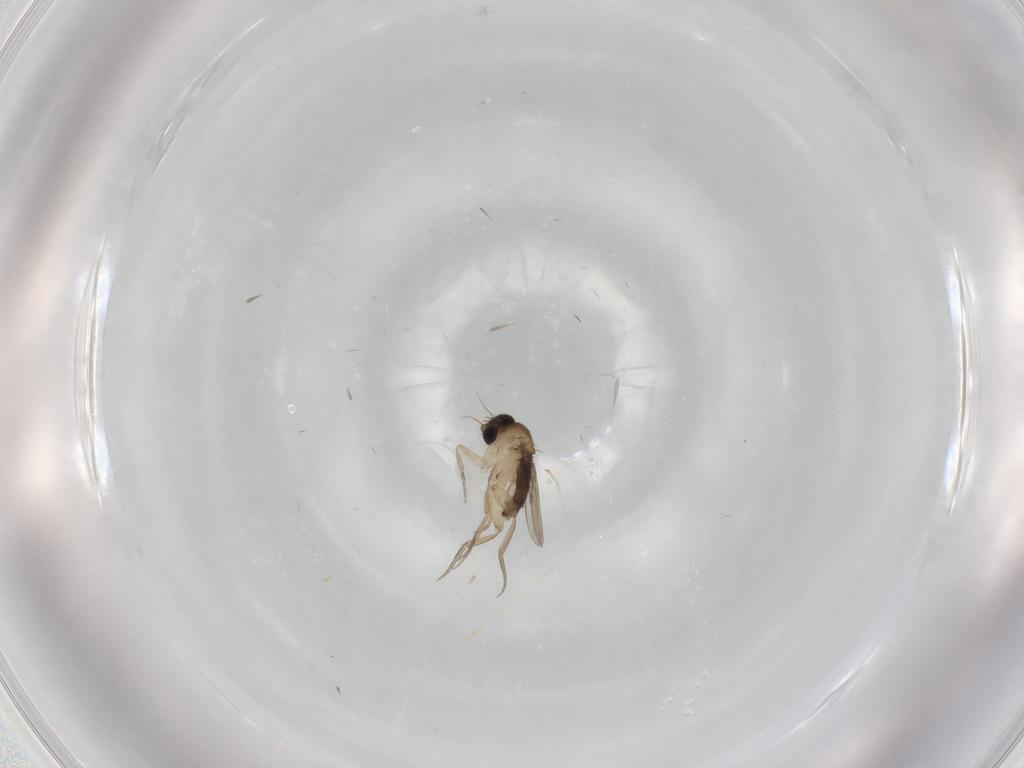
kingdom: Animalia
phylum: Arthropoda
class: Insecta
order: Diptera
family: Phoridae
